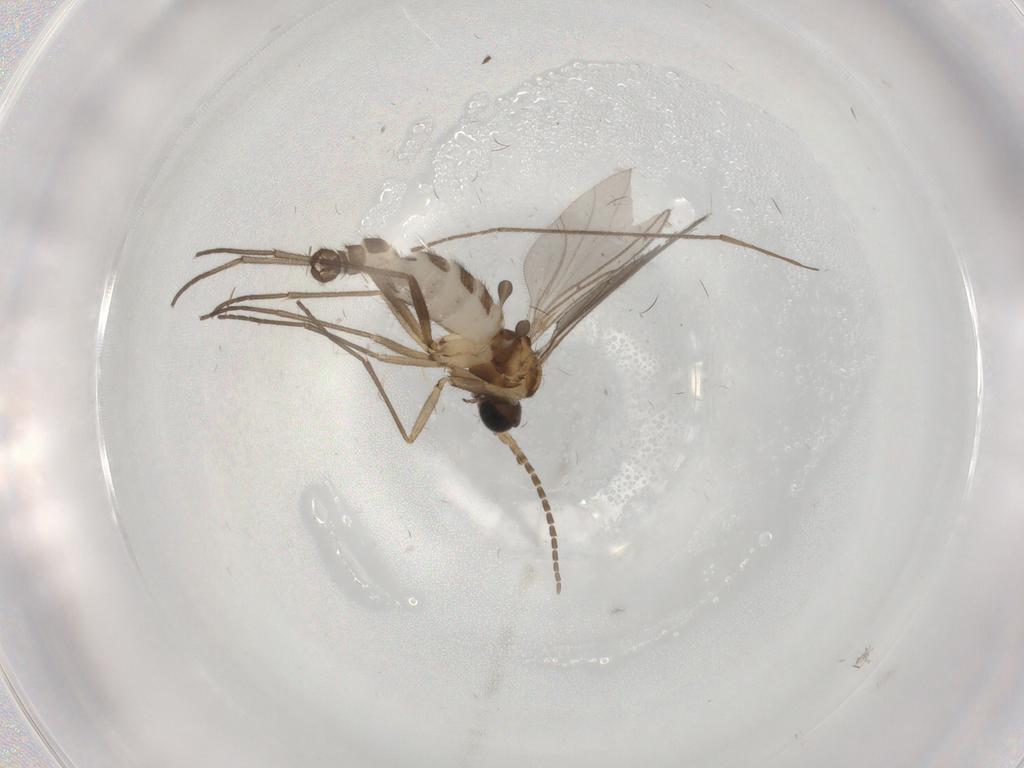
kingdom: Animalia
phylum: Arthropoda
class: Insecta
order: Diptera
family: Sciaridae
